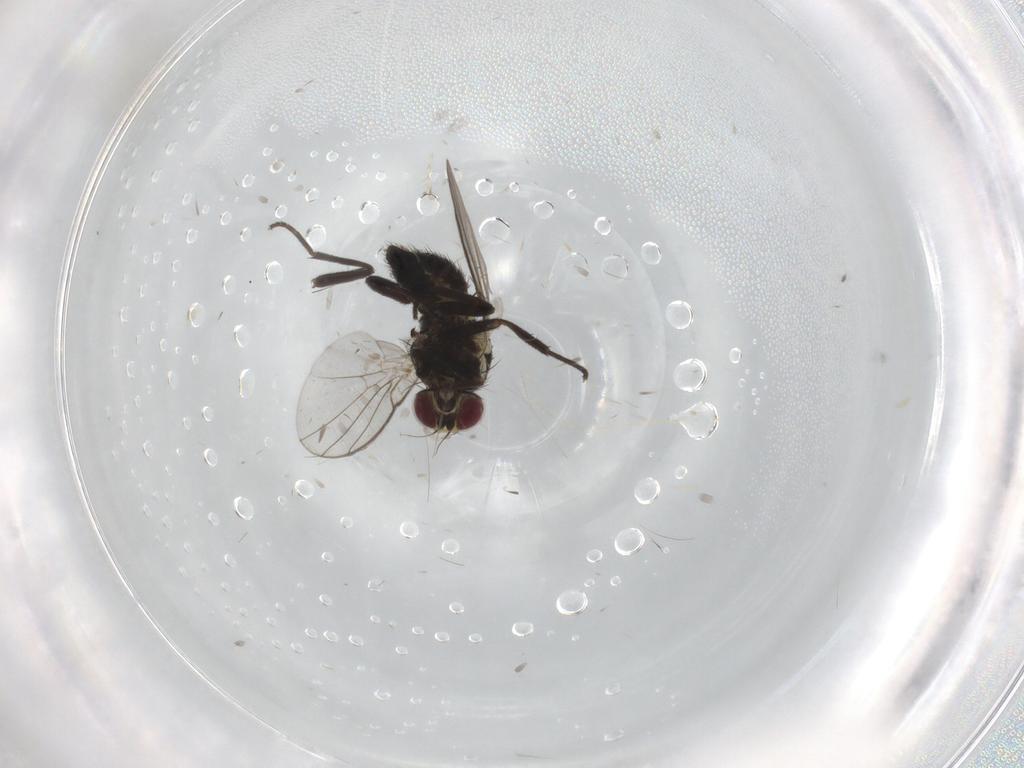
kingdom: Animalia
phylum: Arthropoda
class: Insecta
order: Diptera
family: Agromyzidae
